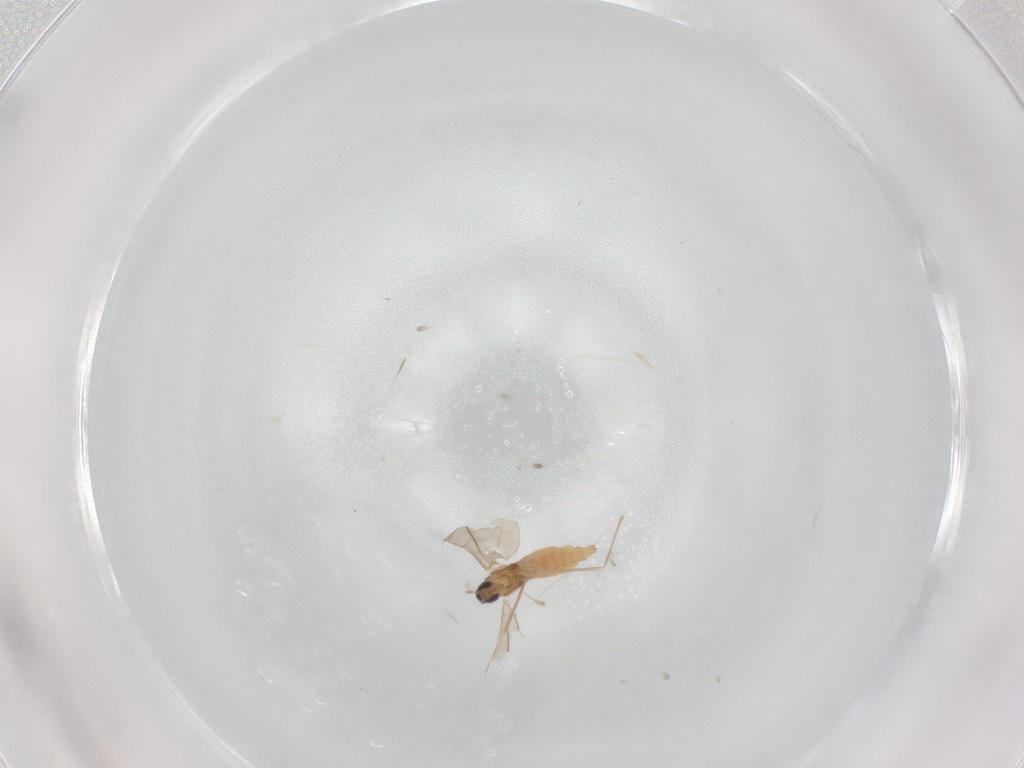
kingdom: Animalia
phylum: Arthropoda
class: Insecta
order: Diptera
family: Cecidomyiidae
